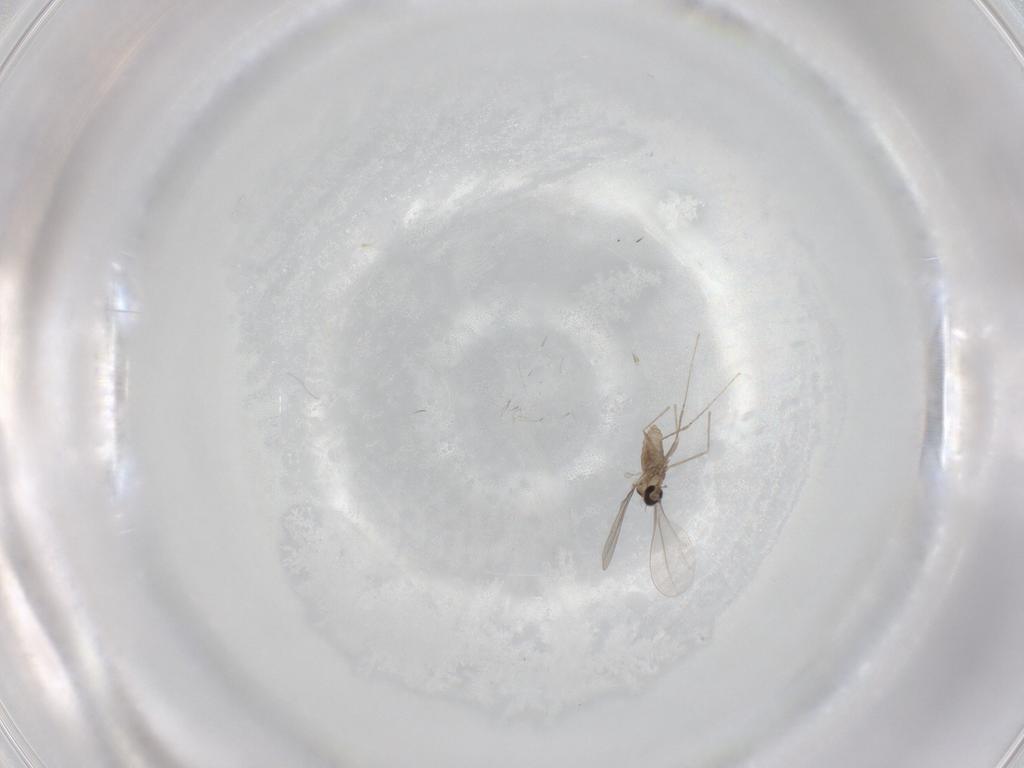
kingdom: Animalia
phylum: Arthropoda
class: Insecta
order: Diptera
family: Cecidomyiidae
